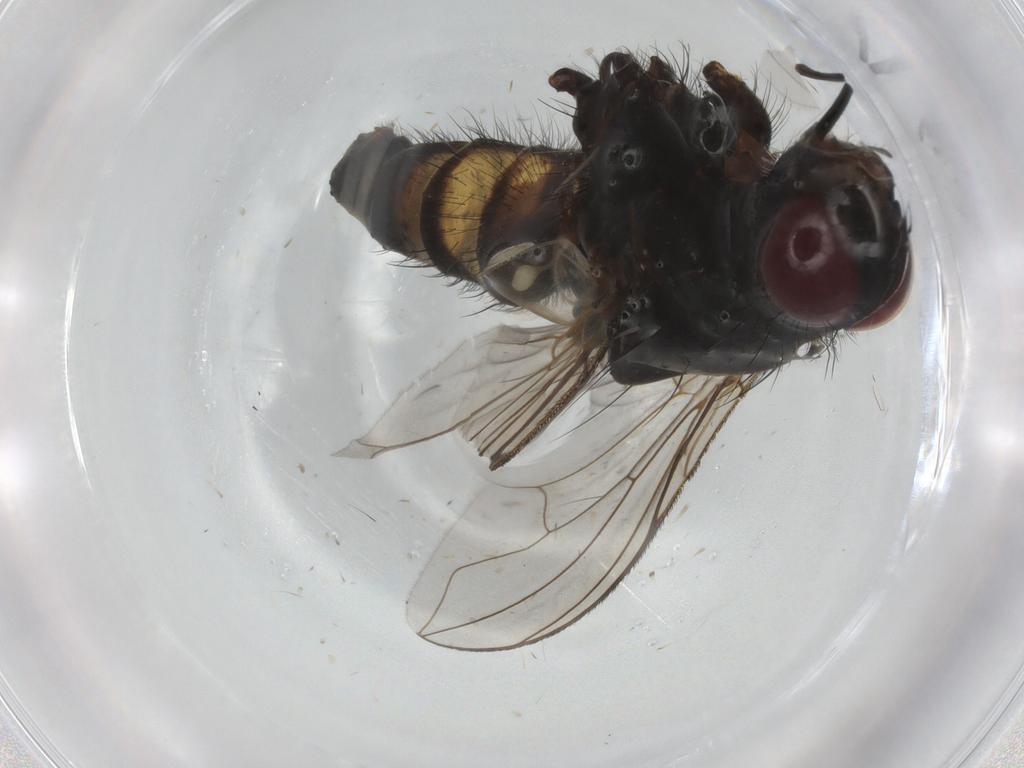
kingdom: Animalia
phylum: Arthropoda
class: Insecta
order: Diptera
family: Tachinidae
